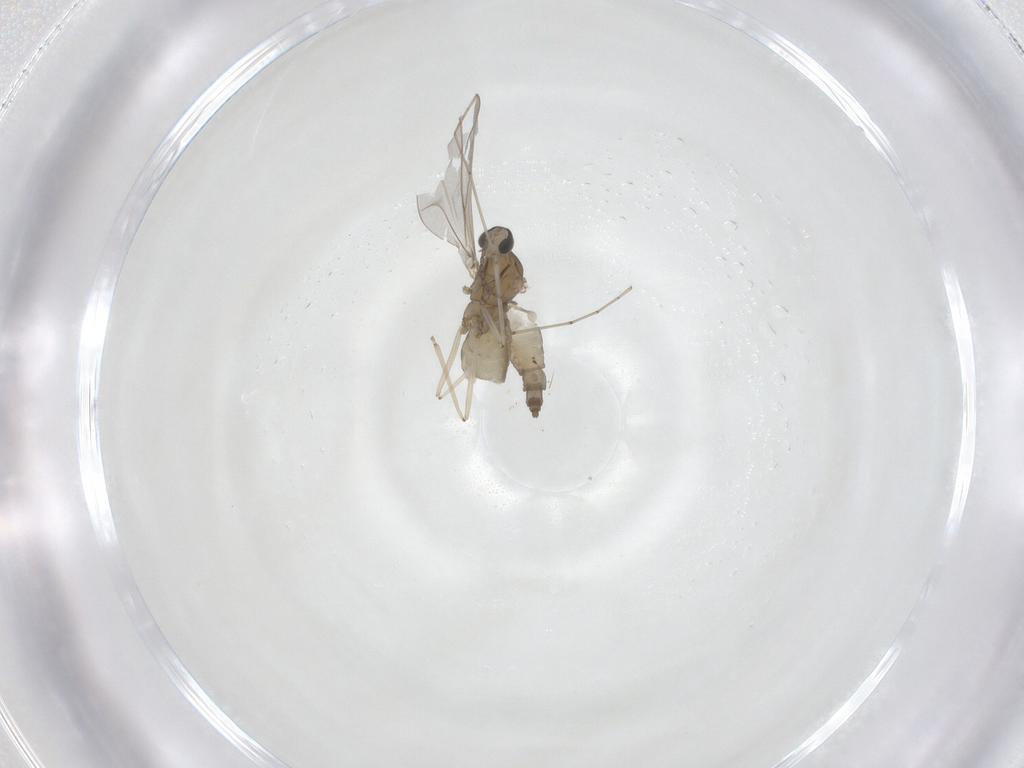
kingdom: Animalia
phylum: Arthropoda
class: Insecta
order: Diptera
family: Cecidomyiidae
